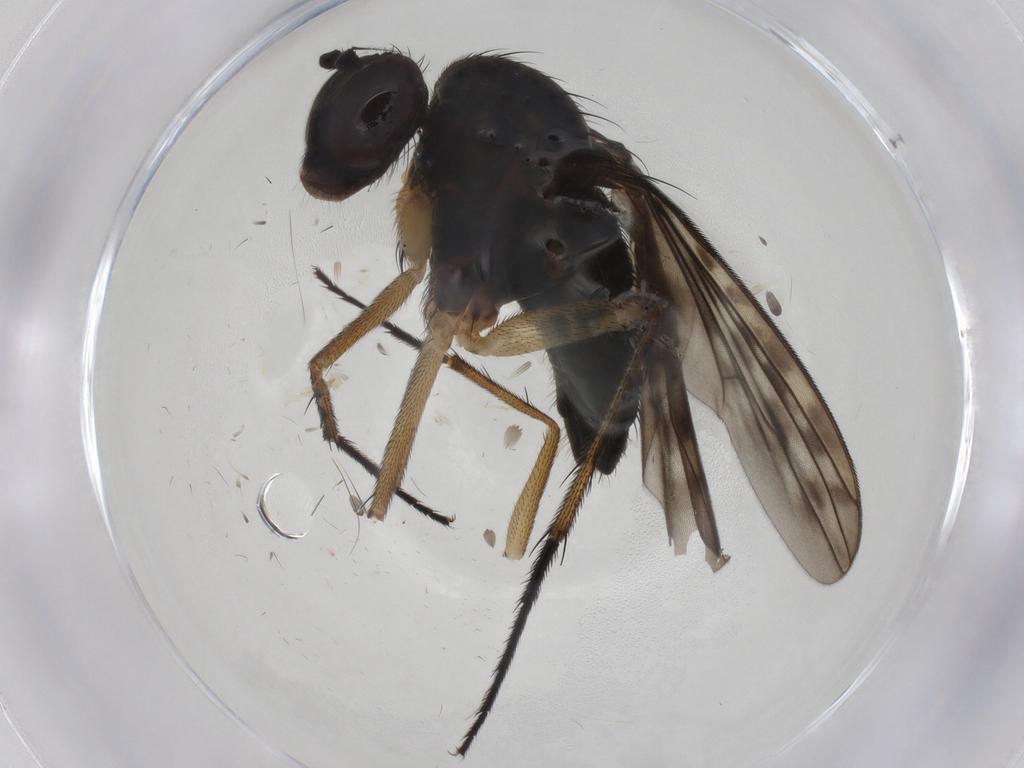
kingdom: Animalia
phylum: Arthropoda
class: Insecta
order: Diptera
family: Dolichopodidae
